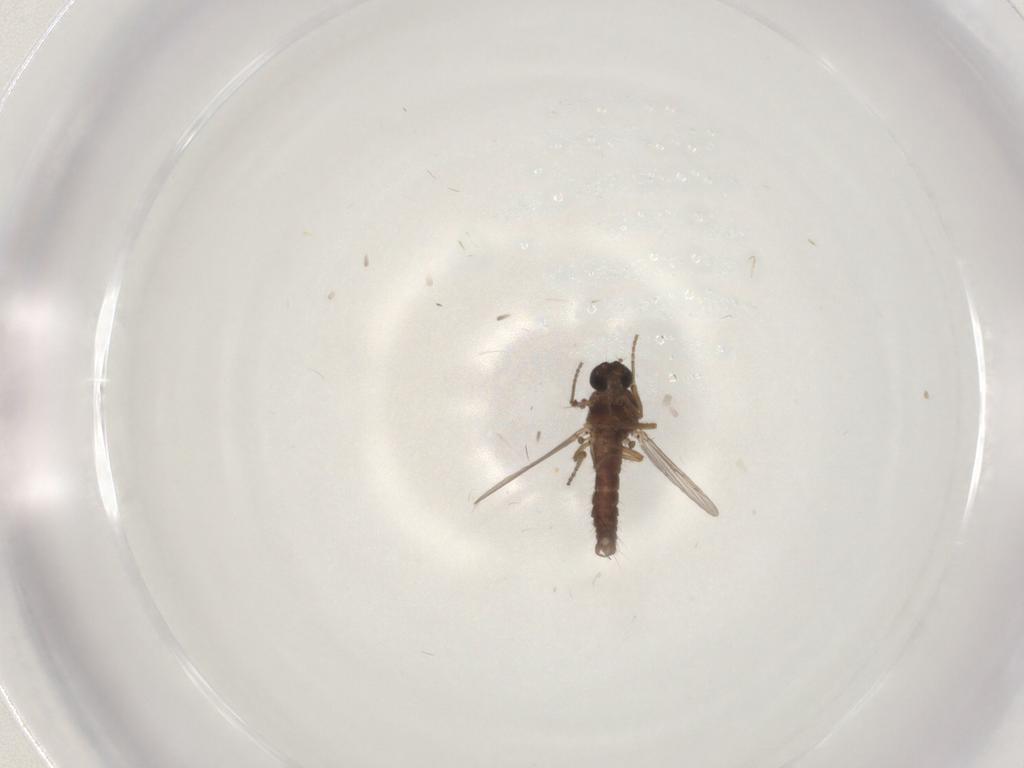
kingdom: Animalia
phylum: Arthropoda
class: Insecta
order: Diptera
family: Ceratopogonidae
